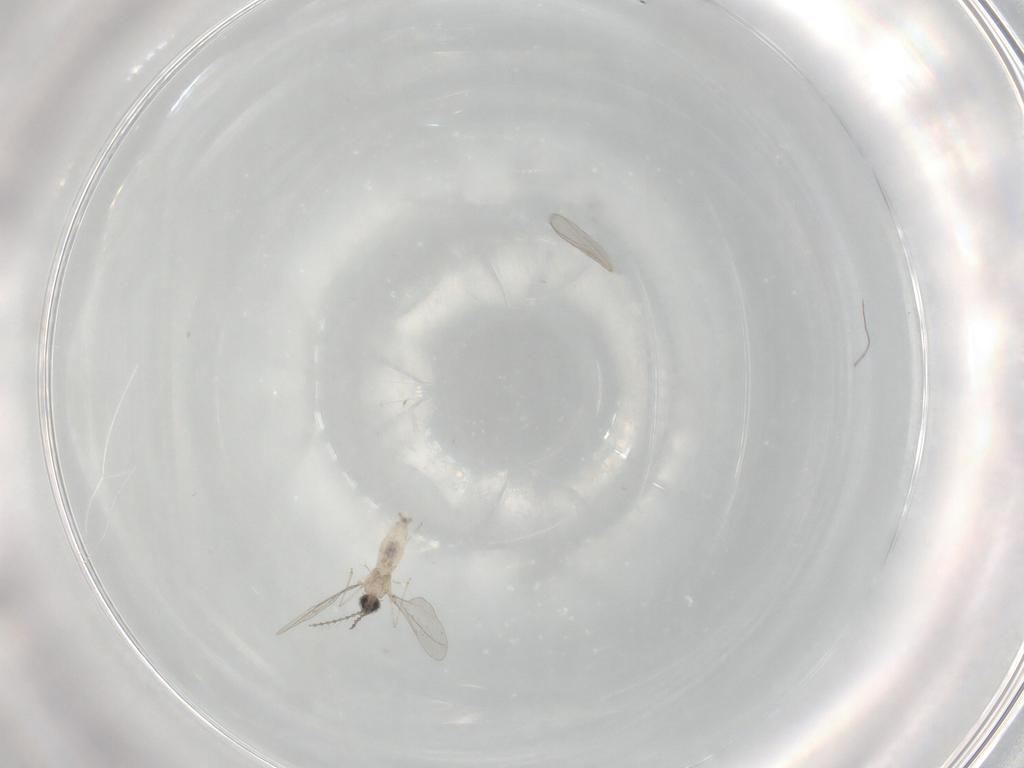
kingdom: Animalia
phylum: Arthropoda
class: Insecta
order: Diptera
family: Cecidomyiidae
